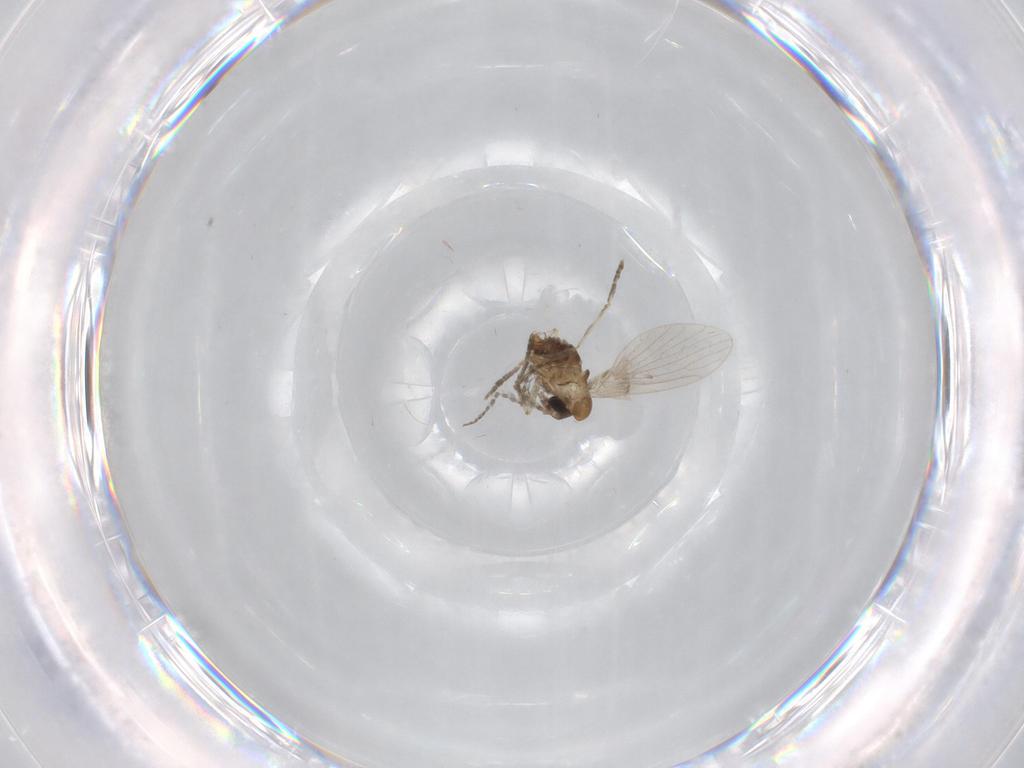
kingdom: Animalia
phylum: Arthropoda
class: Insecta
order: Diptera
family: Psychodidae
